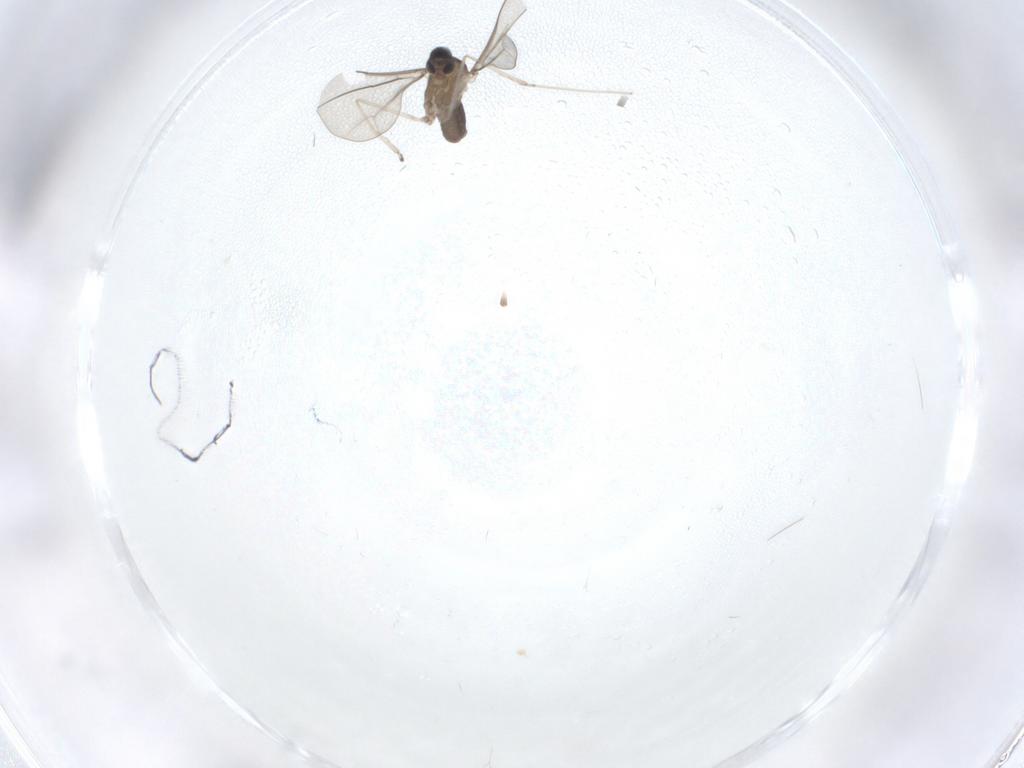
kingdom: Animalia
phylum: Arthropoda
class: Insecta
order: Diptera
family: Cecidomyiidae
